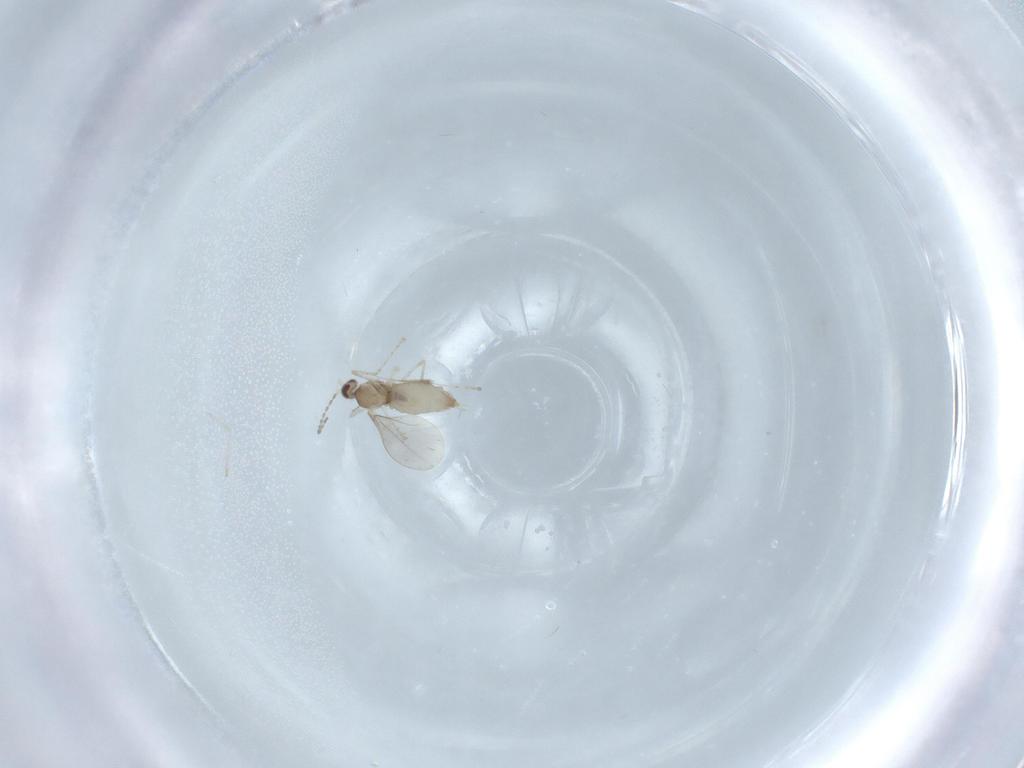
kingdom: Animalia
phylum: Arthropoda
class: Insecta
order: Diptera
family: Cecidomyiidae
